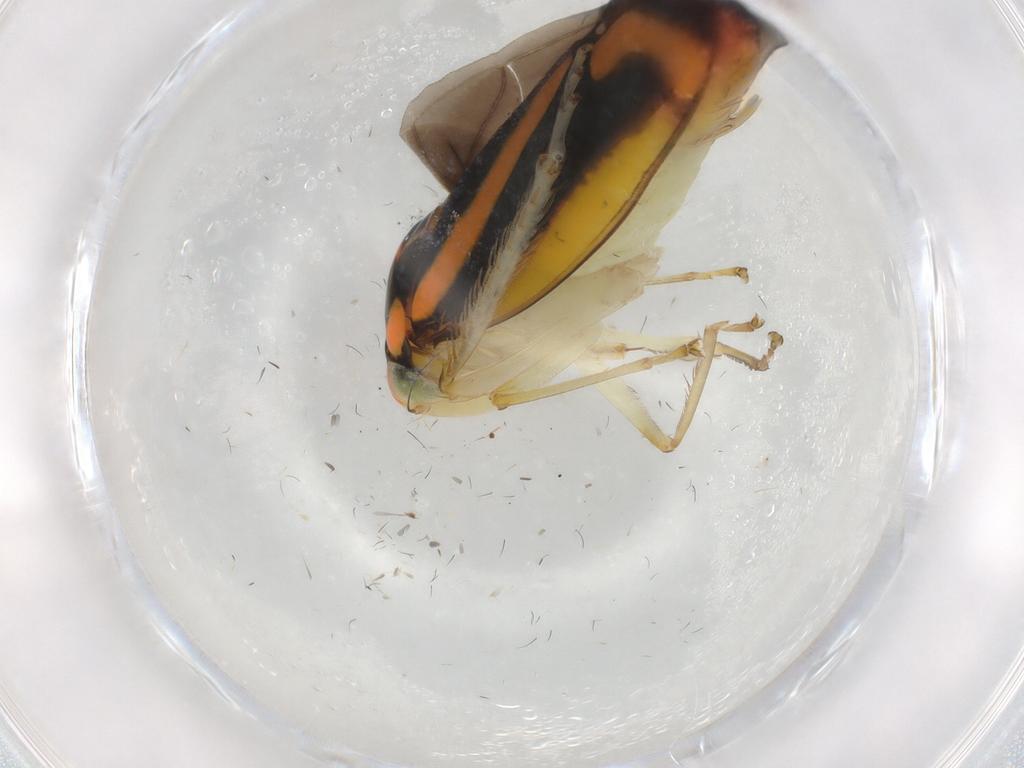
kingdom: Animalia
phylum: Arthropoda
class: Insecta
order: Hemiptera
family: Cicadellidae
